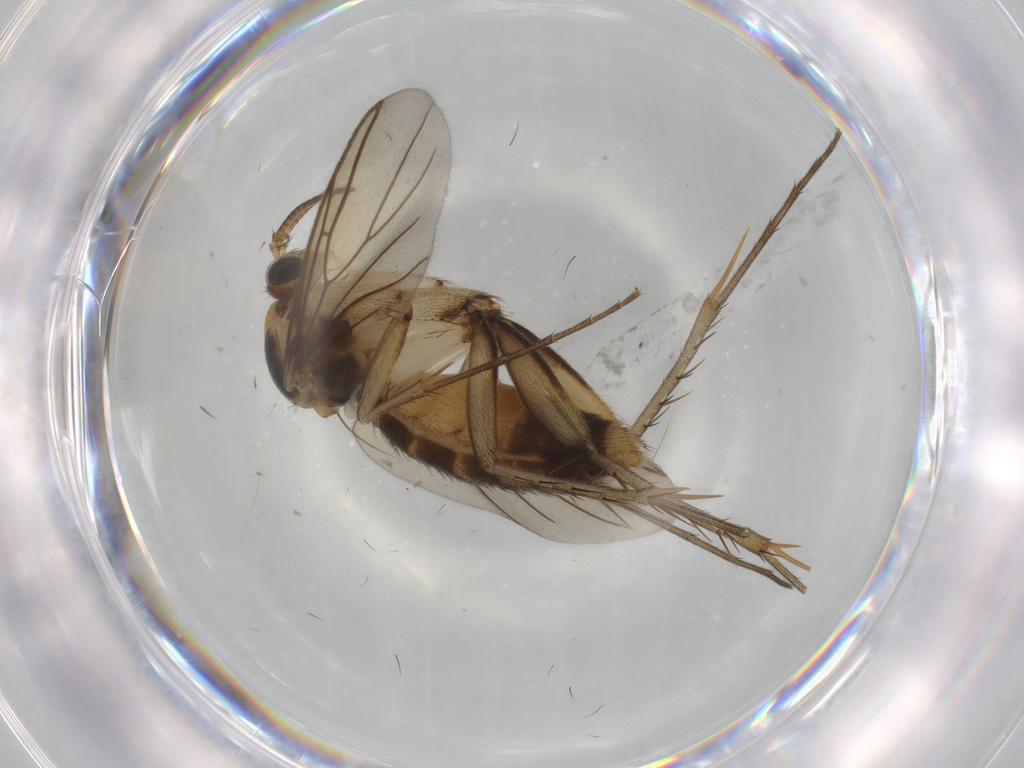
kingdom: Animalia
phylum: Arthropoda
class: Insecta
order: Diptera
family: Mycetophilidae
